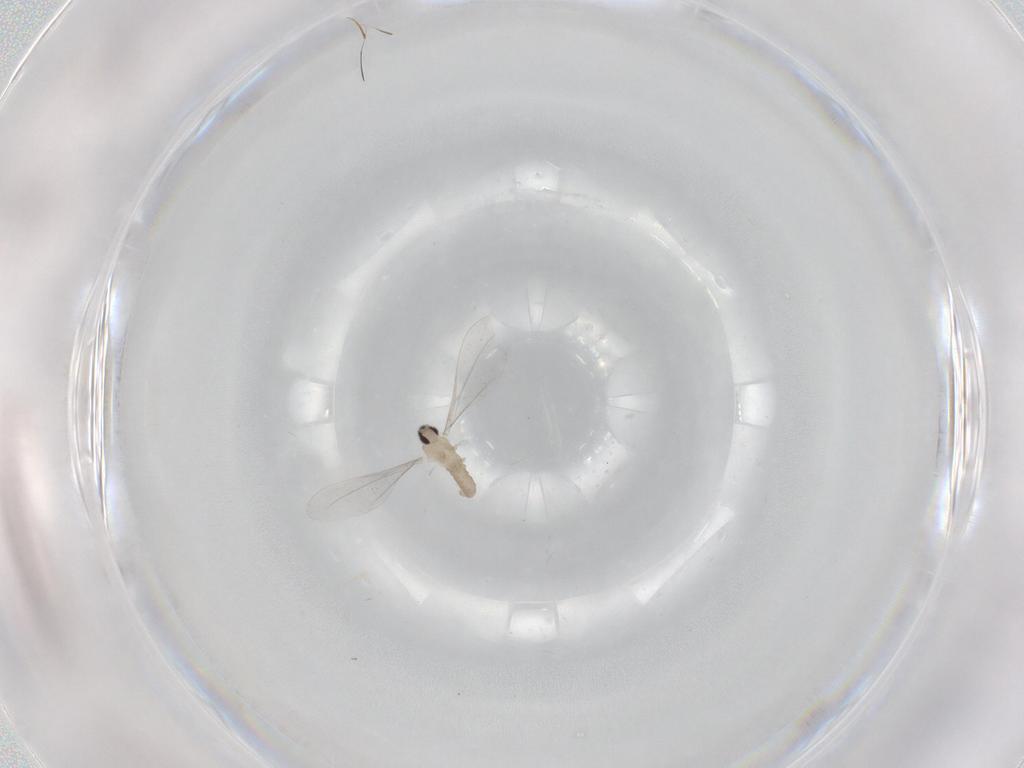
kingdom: Animalia
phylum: Arthropoda
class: Insecta
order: Diptera
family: Cecidomyiidae
